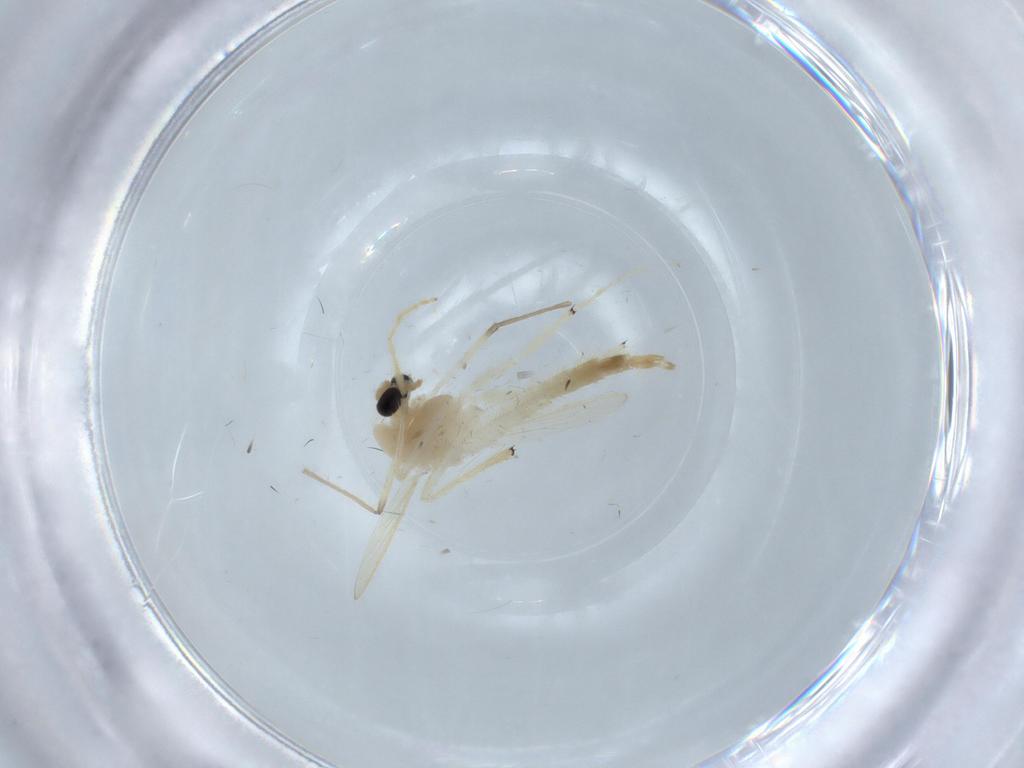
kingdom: Animalia
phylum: Arthropoda
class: Insecta
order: Diptera
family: Chironomidae
